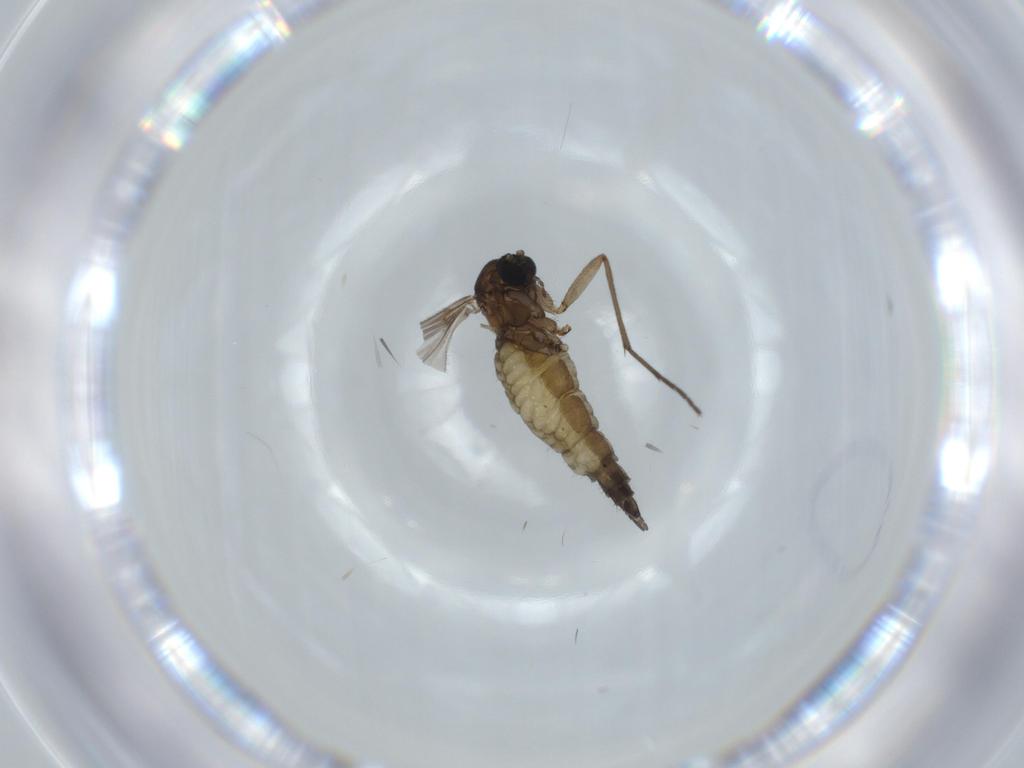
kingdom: Animalia
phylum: Arthropoda
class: Insecta
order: Diptera
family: Sciaridae
